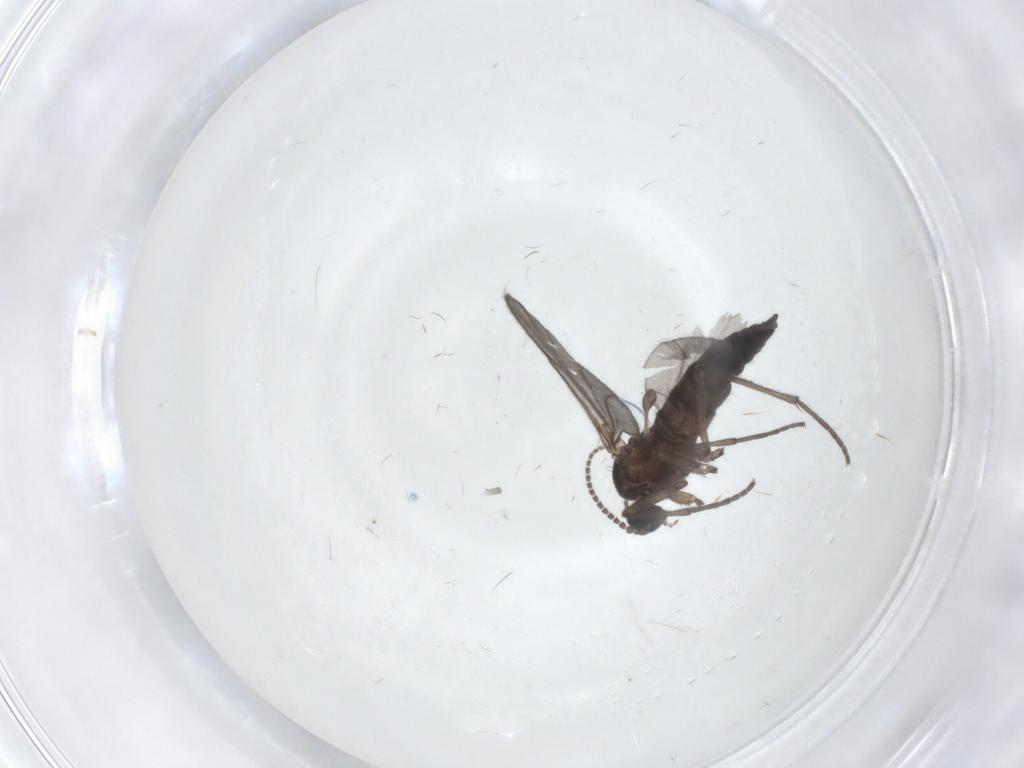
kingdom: Animalia
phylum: Arthropoda
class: Insecta
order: Diptera
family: Sciaridae
